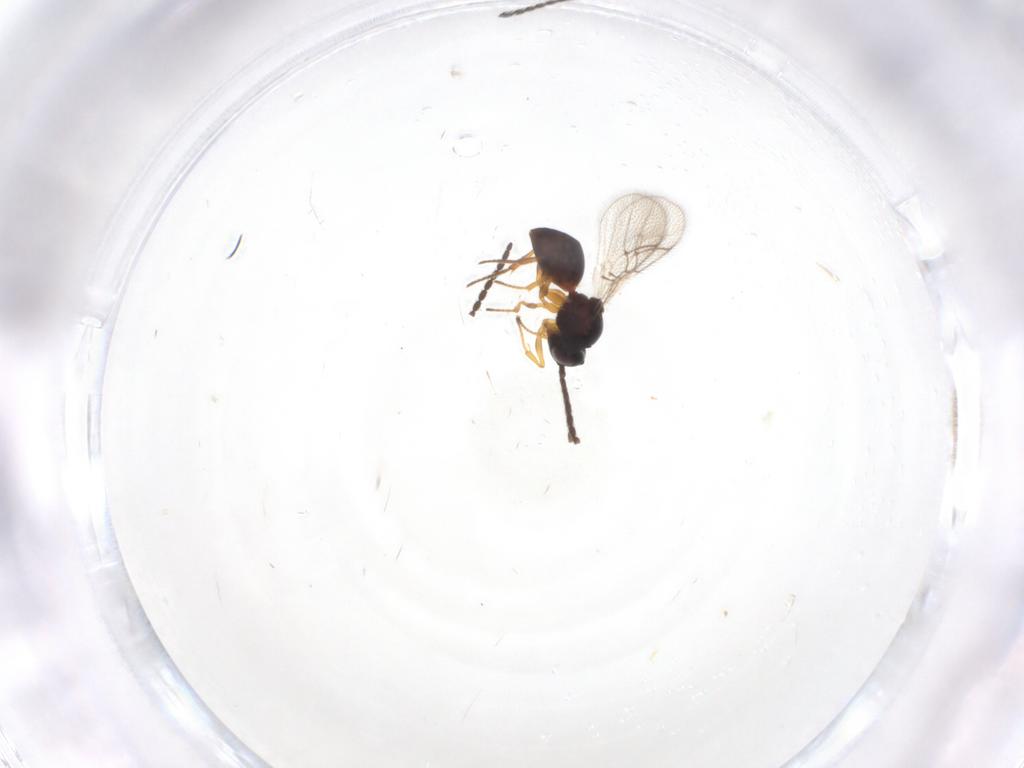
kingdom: Animalia
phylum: Arthropoda
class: Insecta
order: Hymenoptera
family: Figitidae
